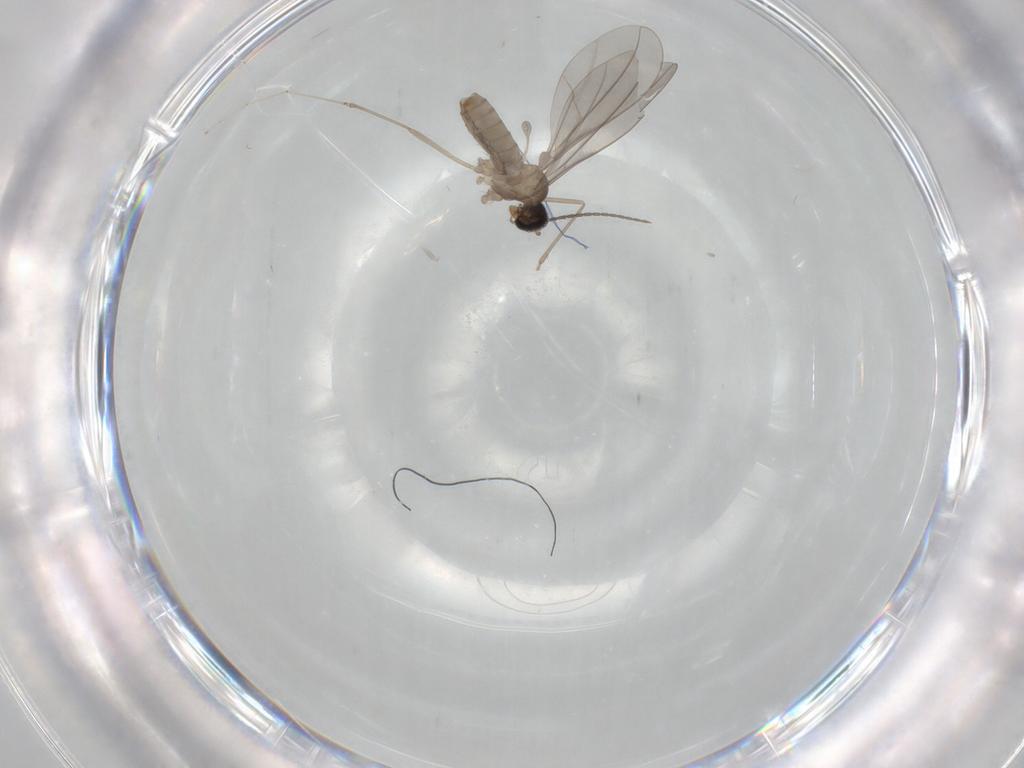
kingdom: Animalia
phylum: Arthropoda
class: Insecta
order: Diptera
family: Cecidomyiidae
